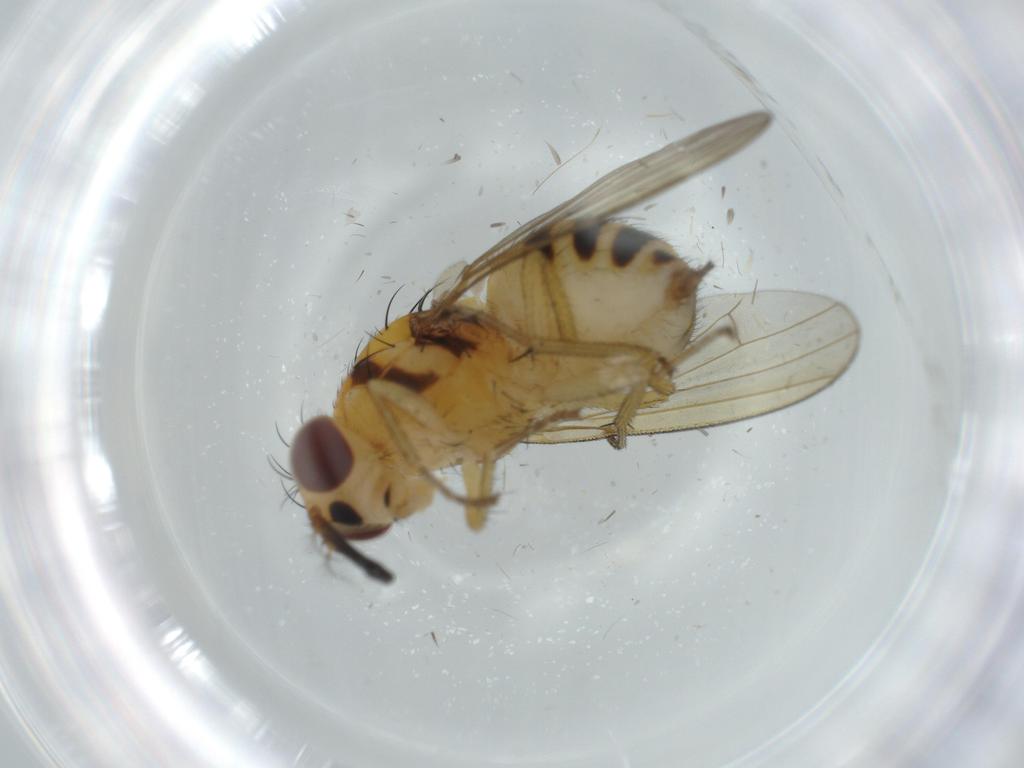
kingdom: Animalia
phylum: Arthropoda
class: Insecta
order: Diptera
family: Lauxaniidae
